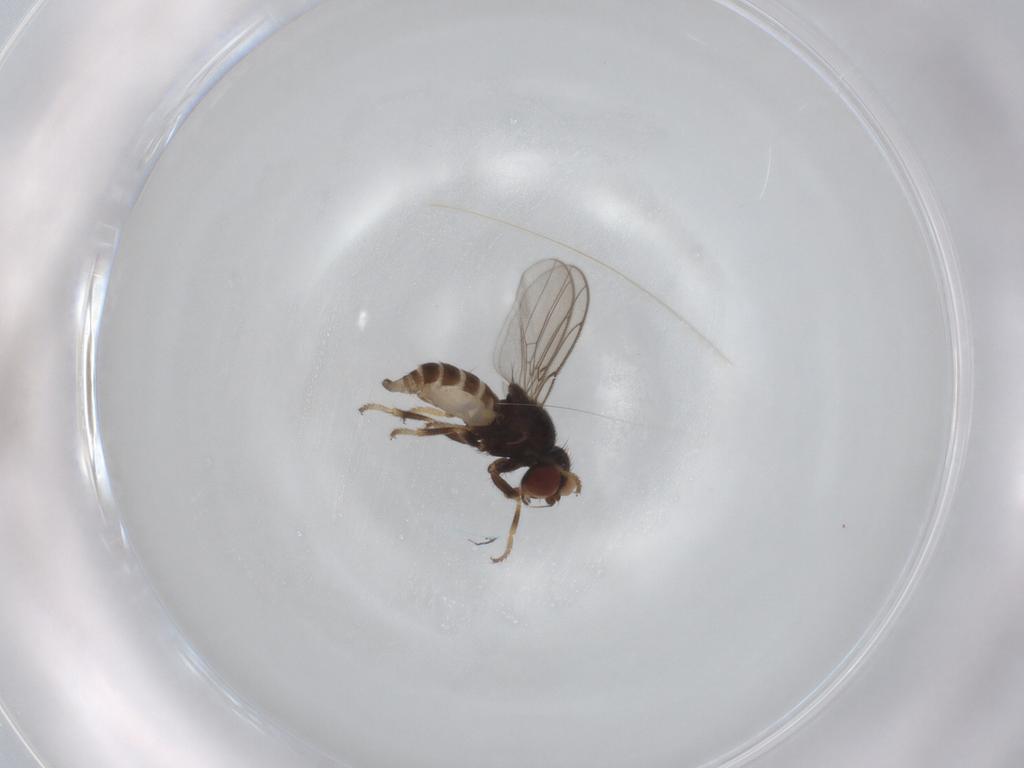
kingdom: Animalia
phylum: Arthropoda
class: Insecta
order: Diptera
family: Chloropidae
